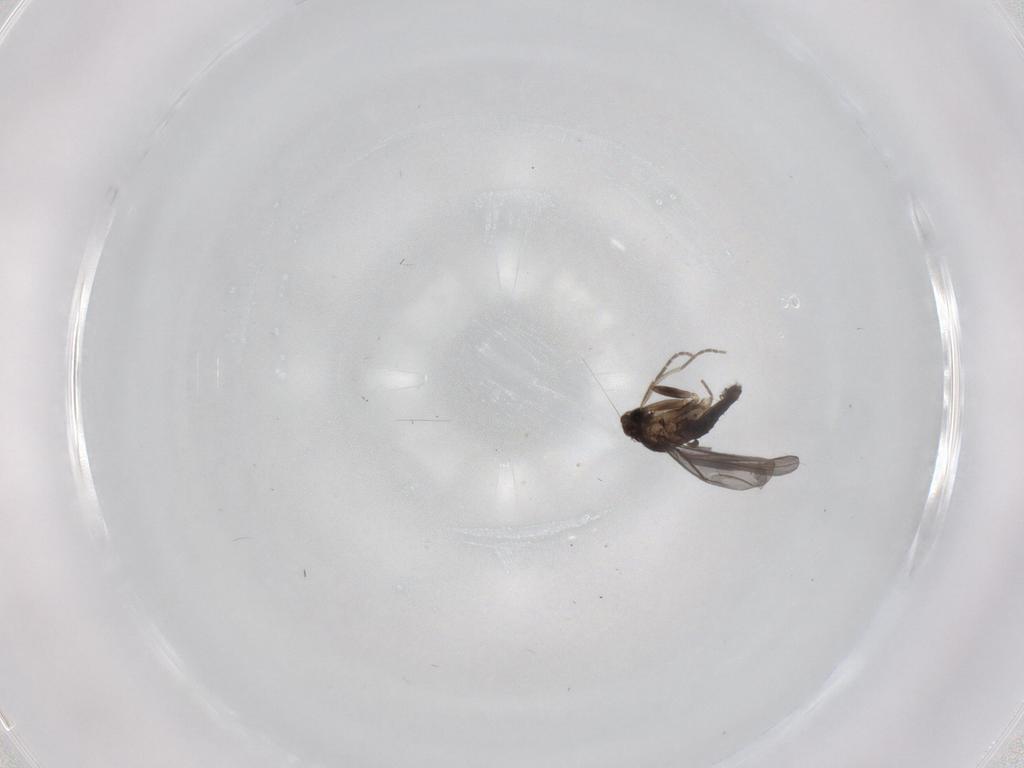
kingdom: Animalia
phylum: Arthropoda
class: Insecta
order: Diptera
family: Cecidomyiidae
